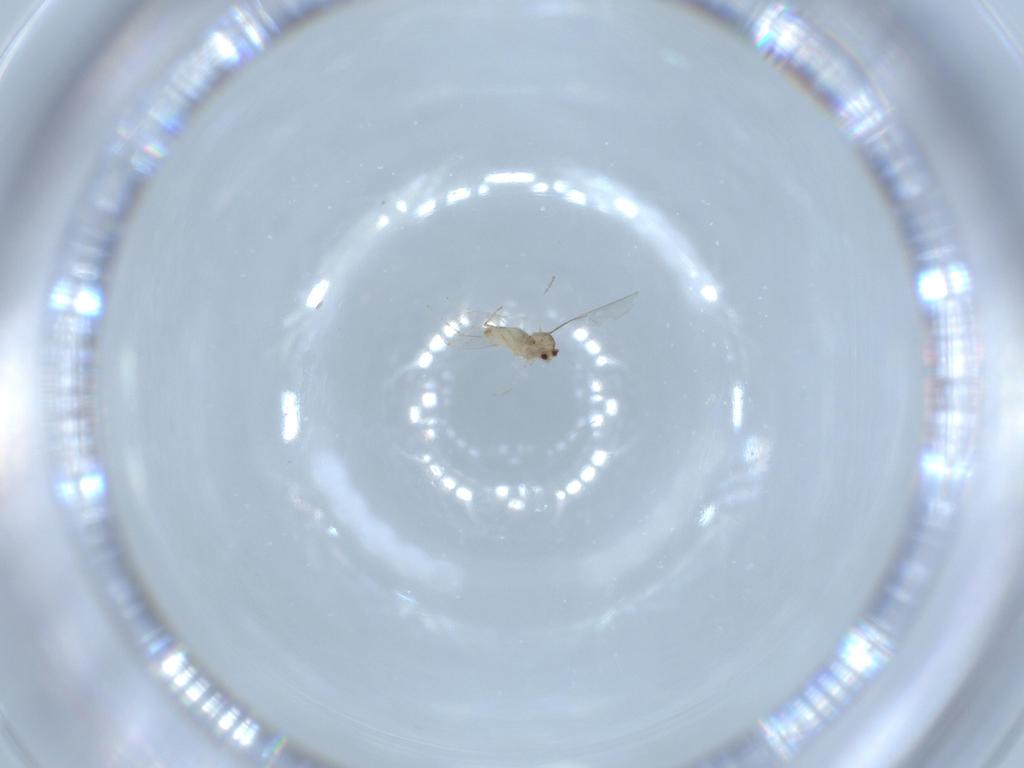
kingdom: Animalia
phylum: Arthropoda
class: Insecta
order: Diptera
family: Cecidomyiidae
